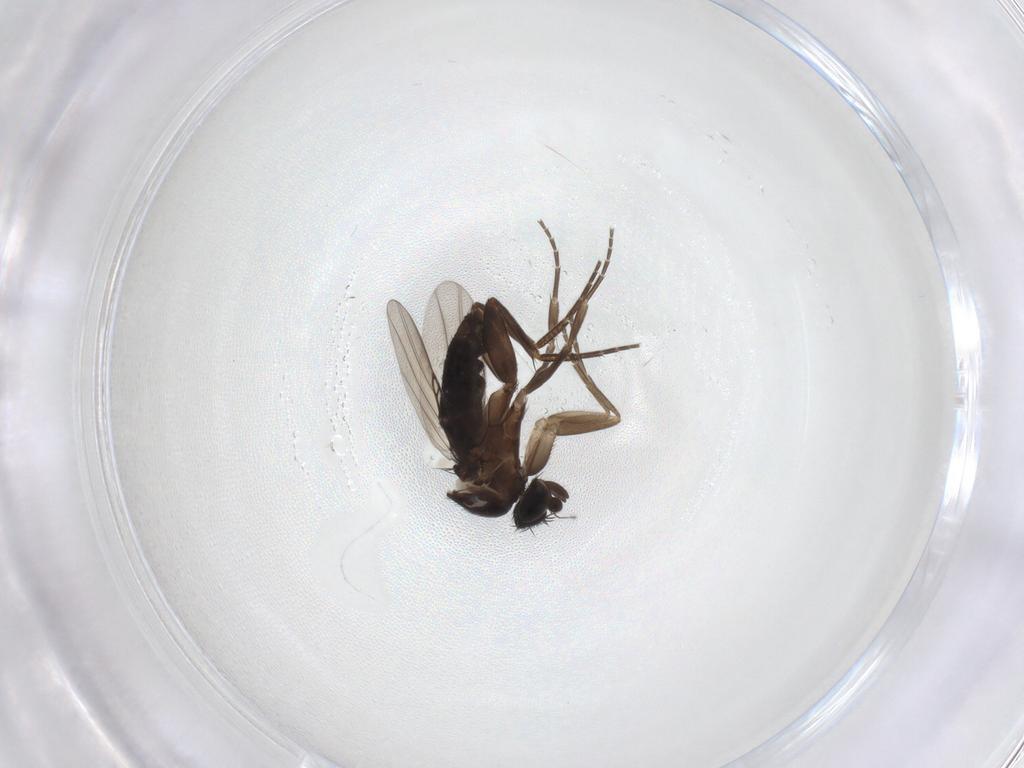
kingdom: Animalia
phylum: Arthropoda
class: Insecta
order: Diptera
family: Phoridae
